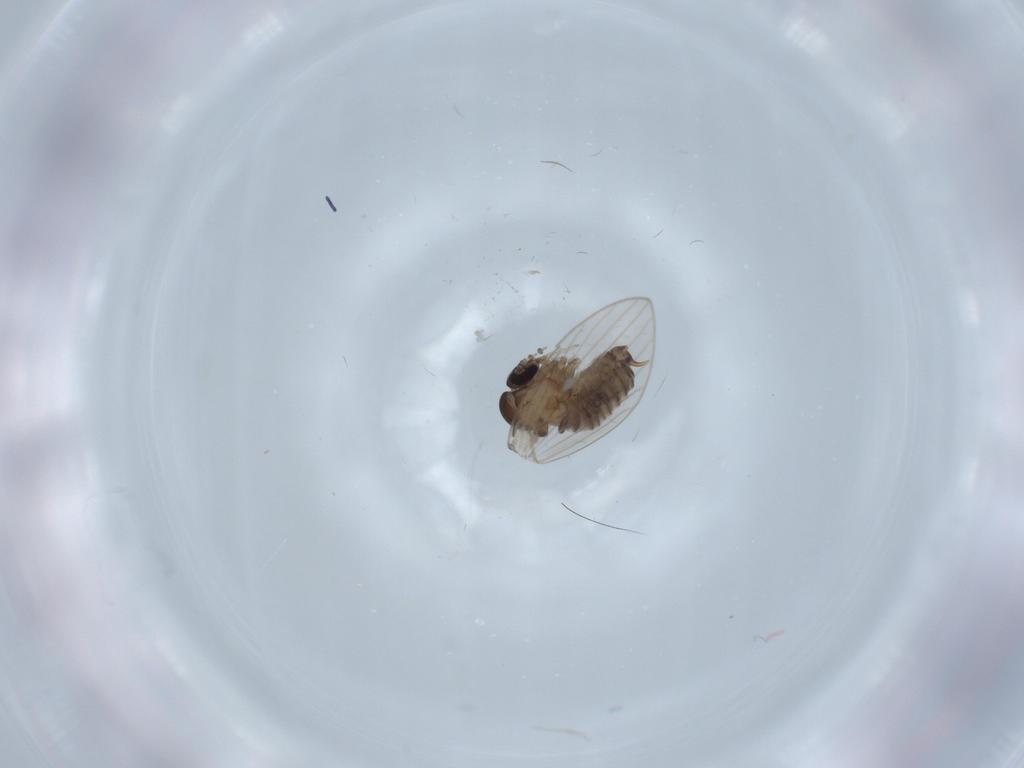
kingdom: Animalia
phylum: Arthropoda
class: Insecta
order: Diptera
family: Psychodidae
